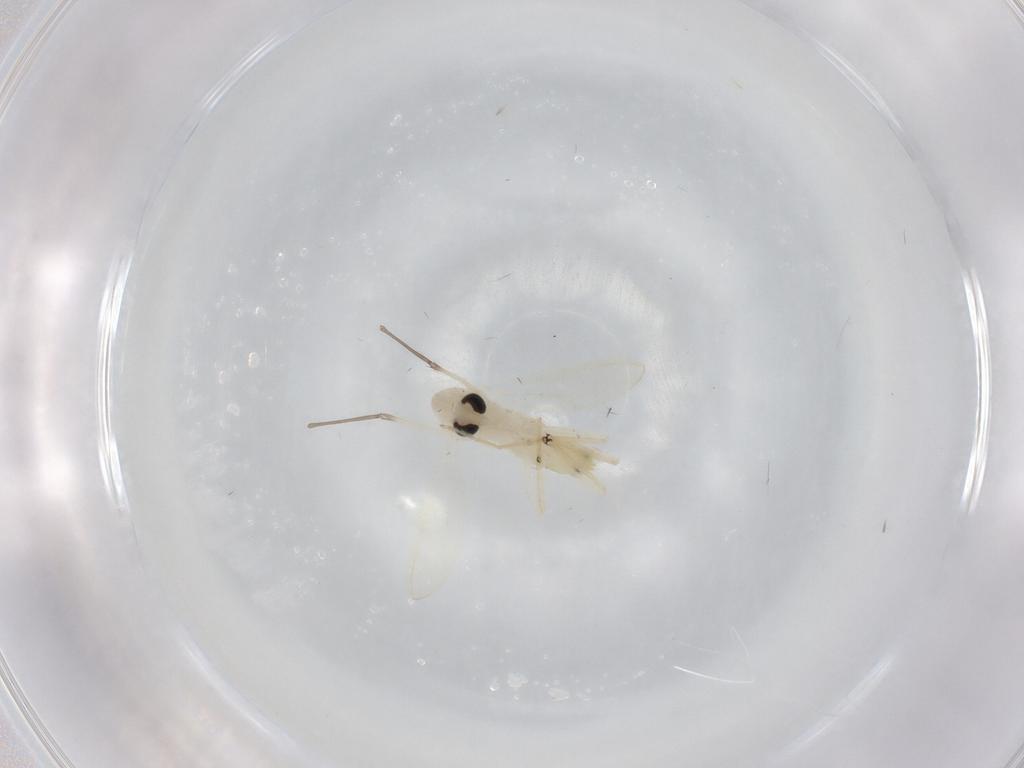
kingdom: Animalia
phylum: Arthropoda
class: Insecta
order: Diptera
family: Chironomidae
